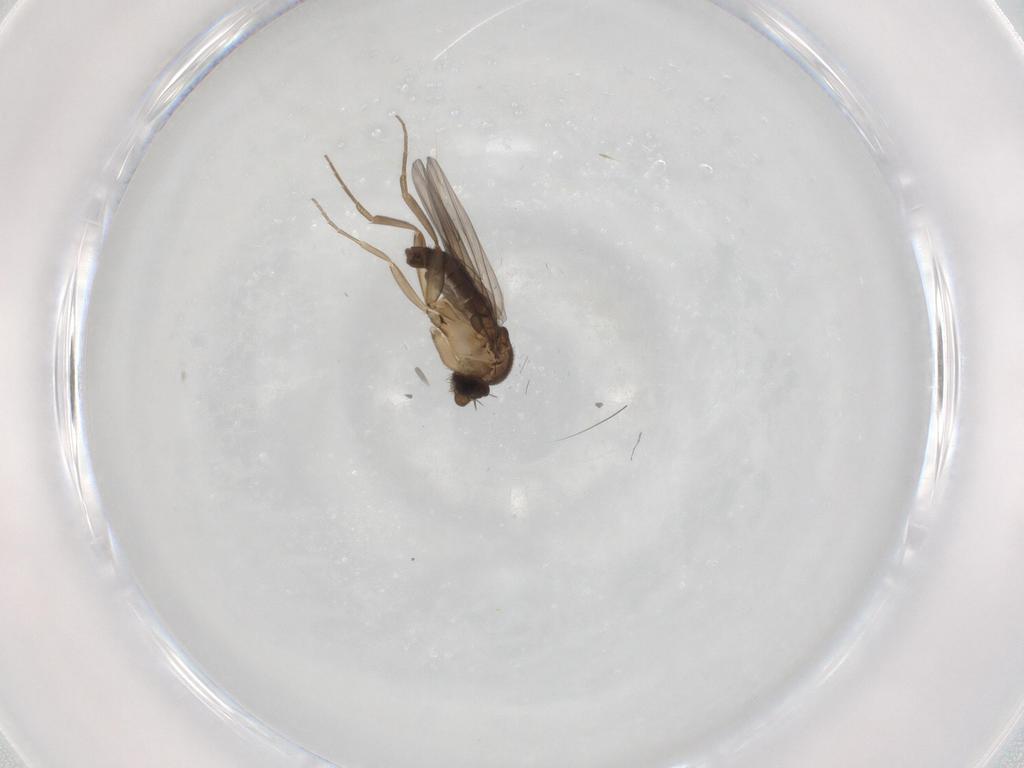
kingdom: Animalia
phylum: Arthropoda
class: Insecta
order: Diptera
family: Phoridae
